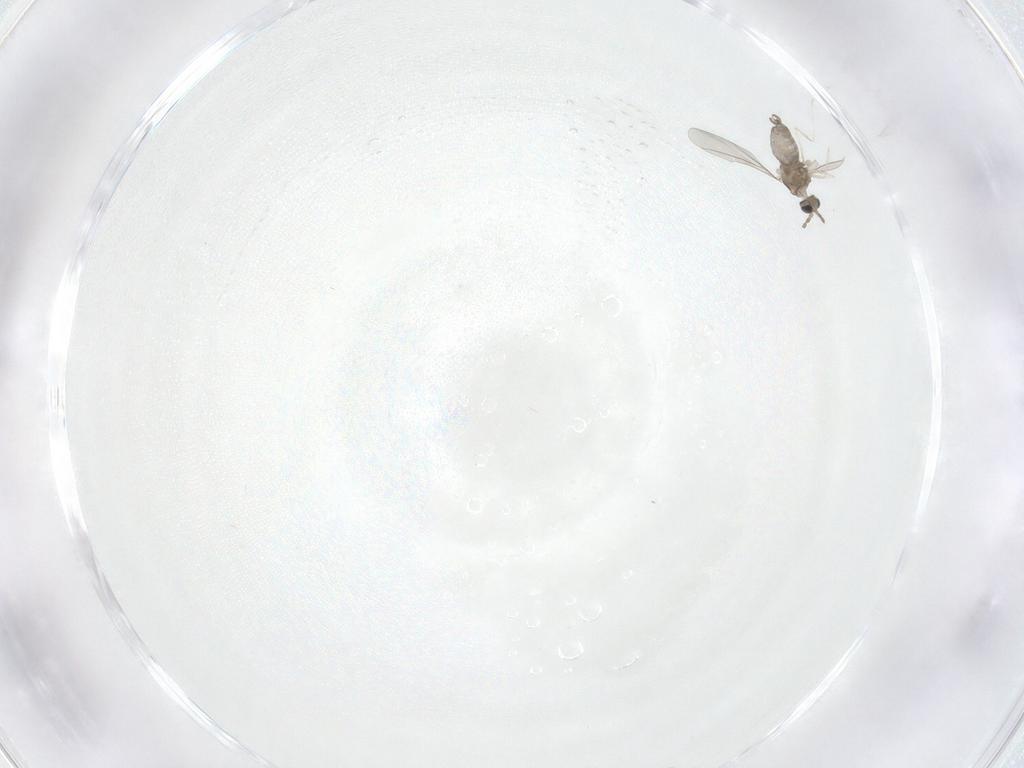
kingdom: Animalia
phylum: Arthropoda
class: Insecta
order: Diptera
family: Cecidomyiidae
